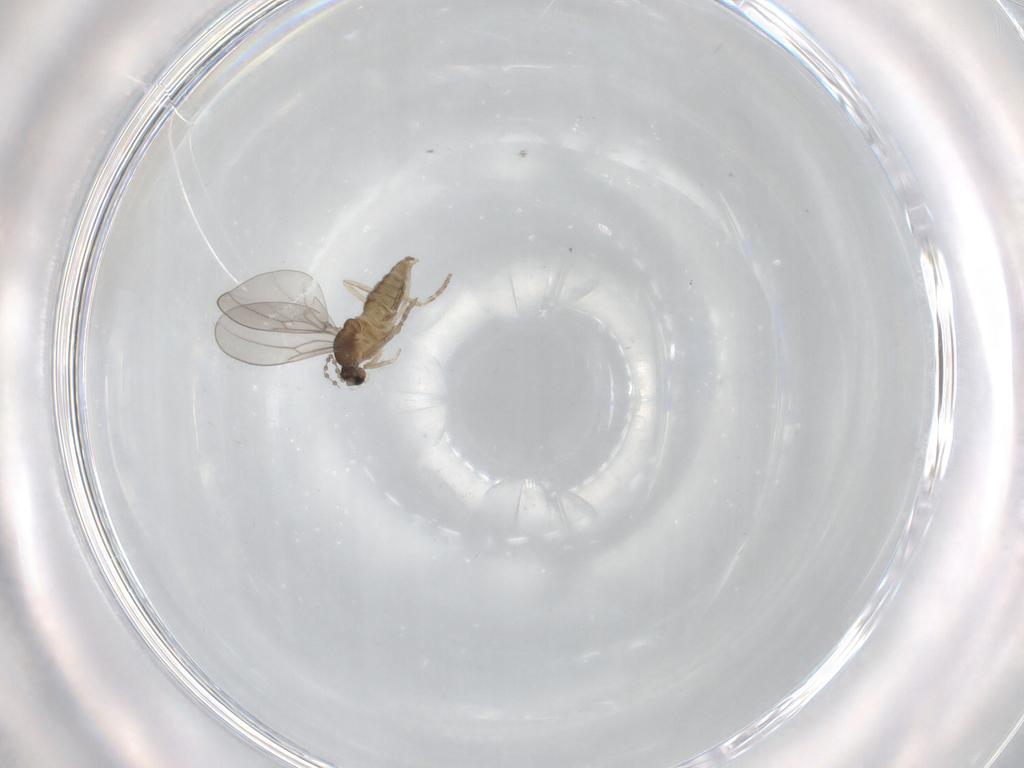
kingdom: Animalia
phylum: Arthropoda
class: Insecta
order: Diptera
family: Cecidomyiidae
